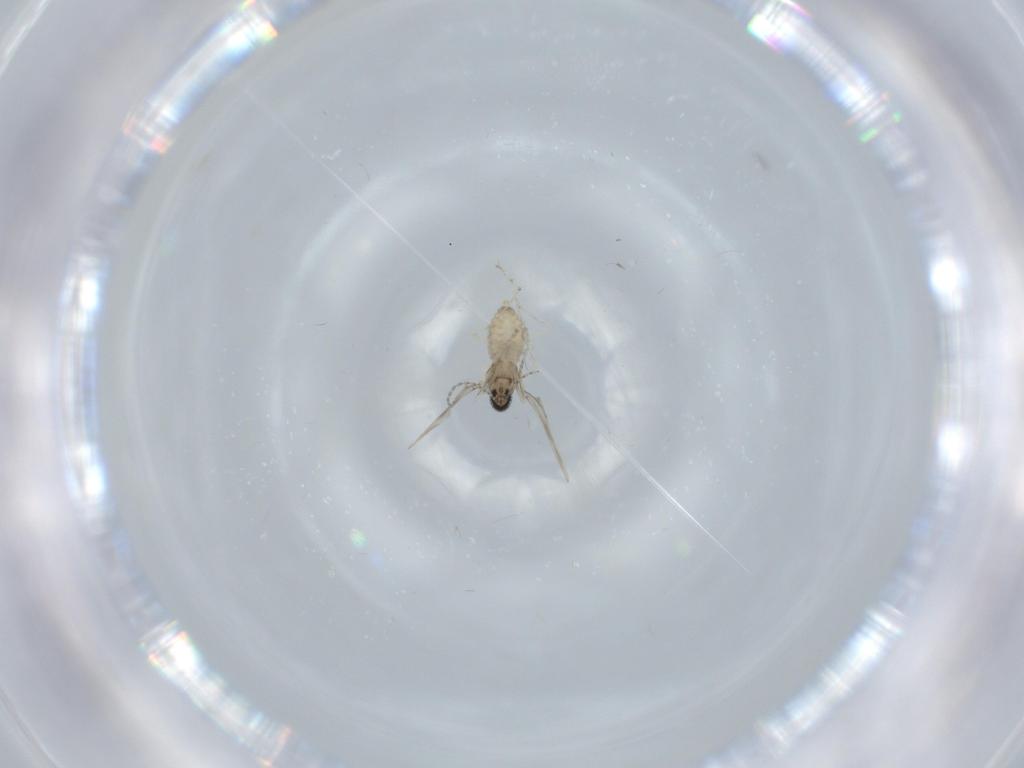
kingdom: Animalia
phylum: Arthropoda
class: Insecta
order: Diptera
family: Cecidomyiidae
